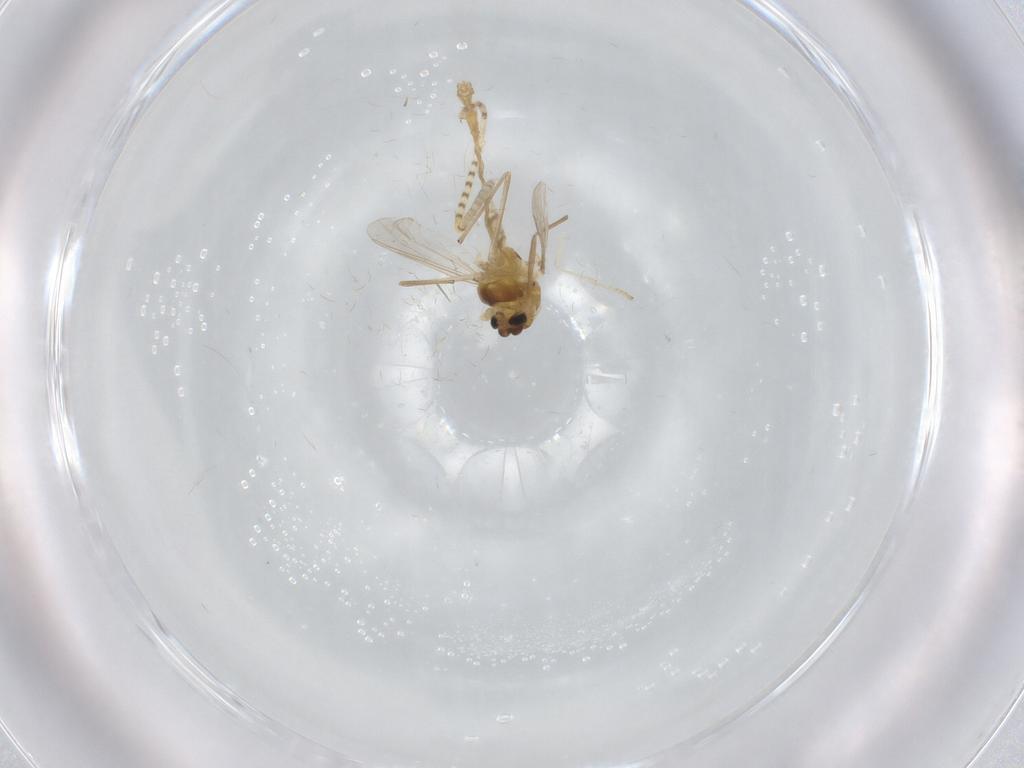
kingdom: Animalia
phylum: Arthropoda
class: Insecta
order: Diptera
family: Chironomidae
